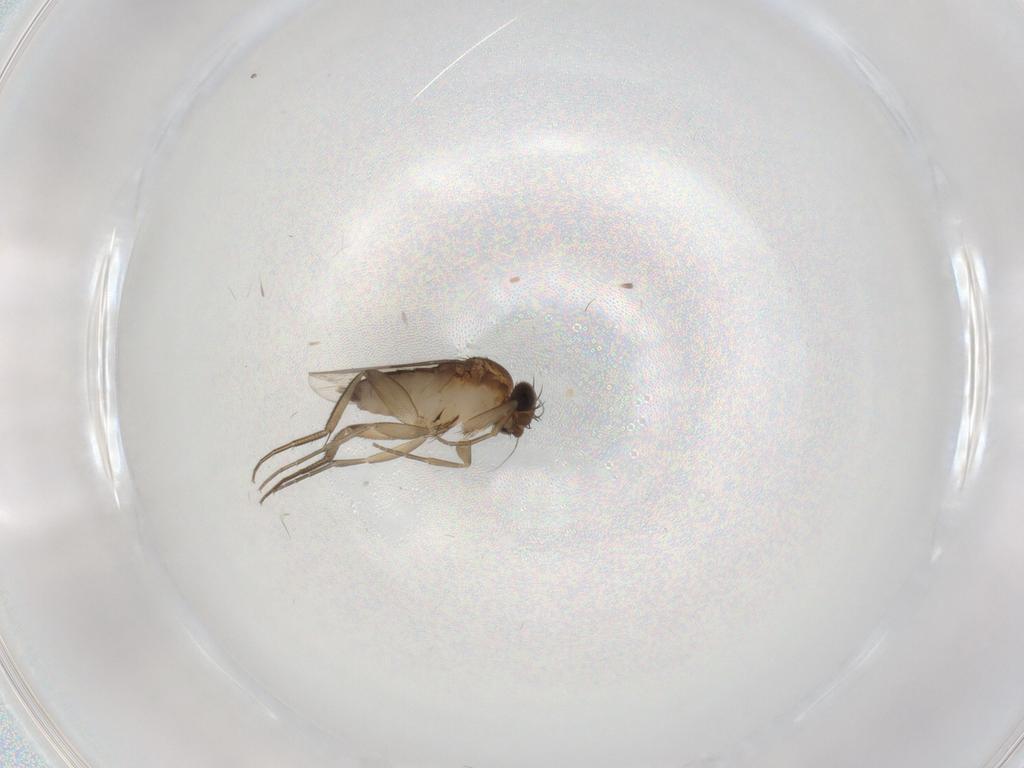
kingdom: Animalia
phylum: Arthropoda
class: Insecta
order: Diptera
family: Phoridae
